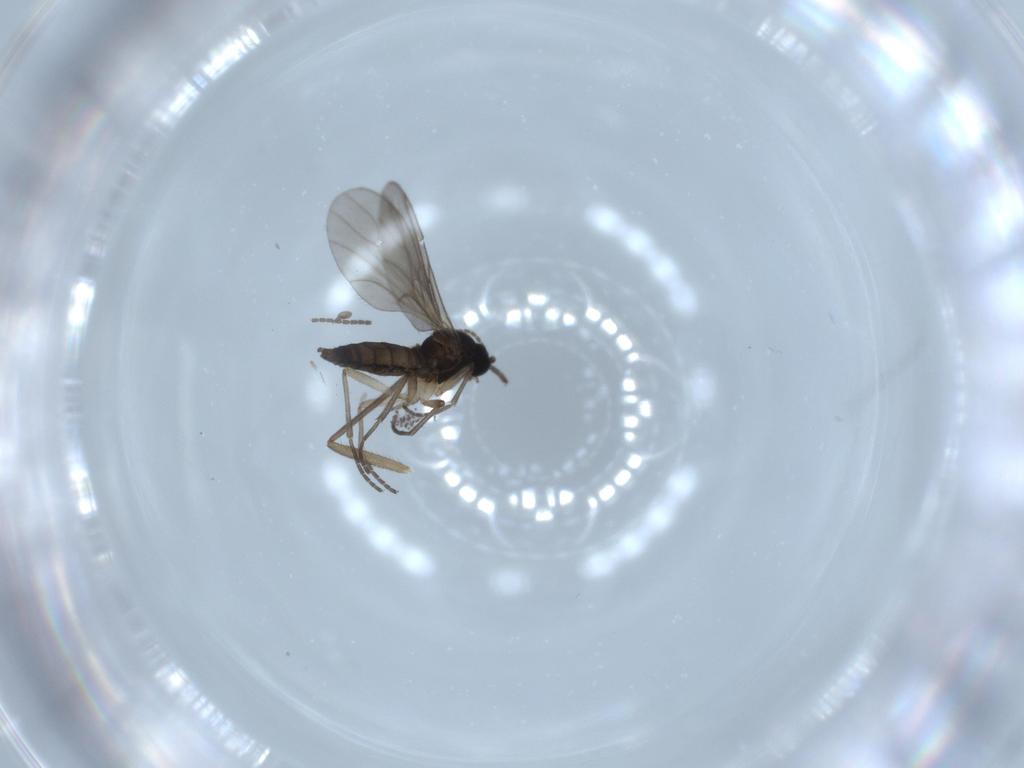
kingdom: Animalia
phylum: Arthropoda
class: Insecta
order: Diptera
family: Sciaridae
